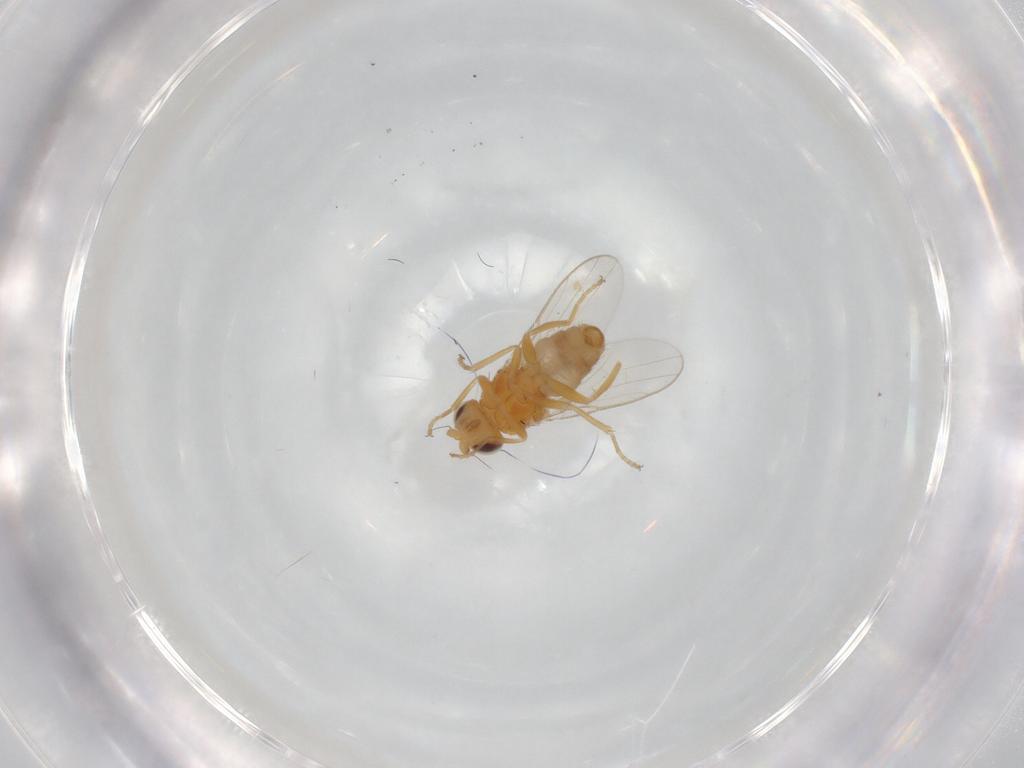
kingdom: Animalia
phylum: Arthropoda
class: Insecta
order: Diptera
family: Chloropidae
